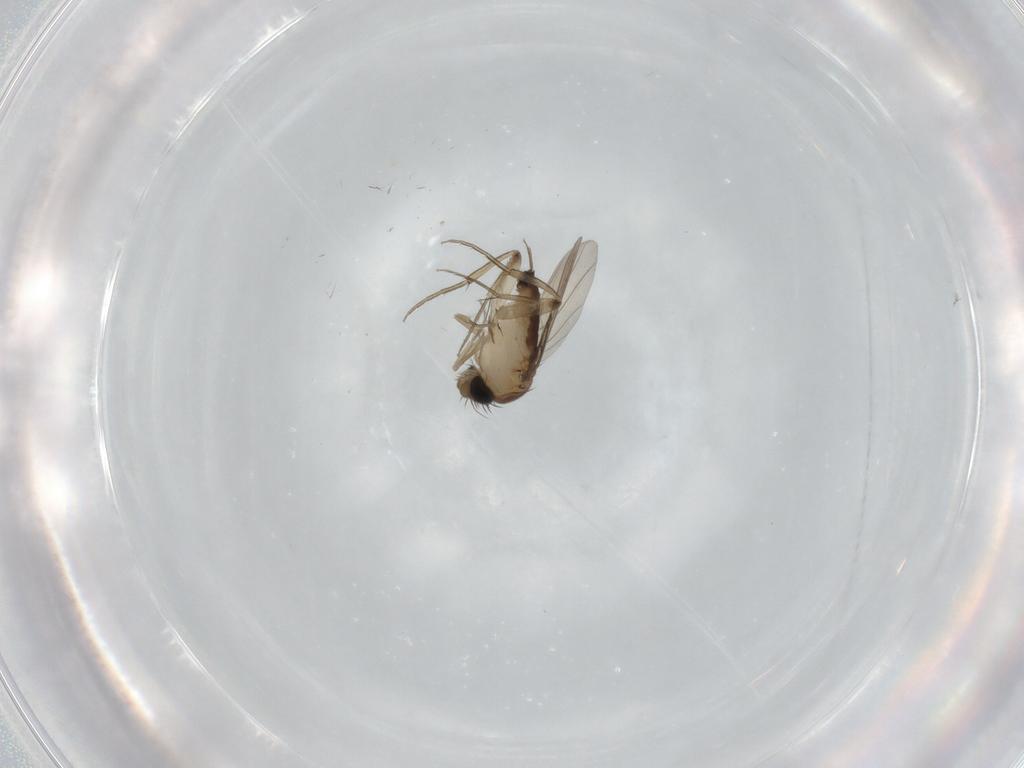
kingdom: Animalia
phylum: Arthropoda
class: Insecta
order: Diptera
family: Phoridae
